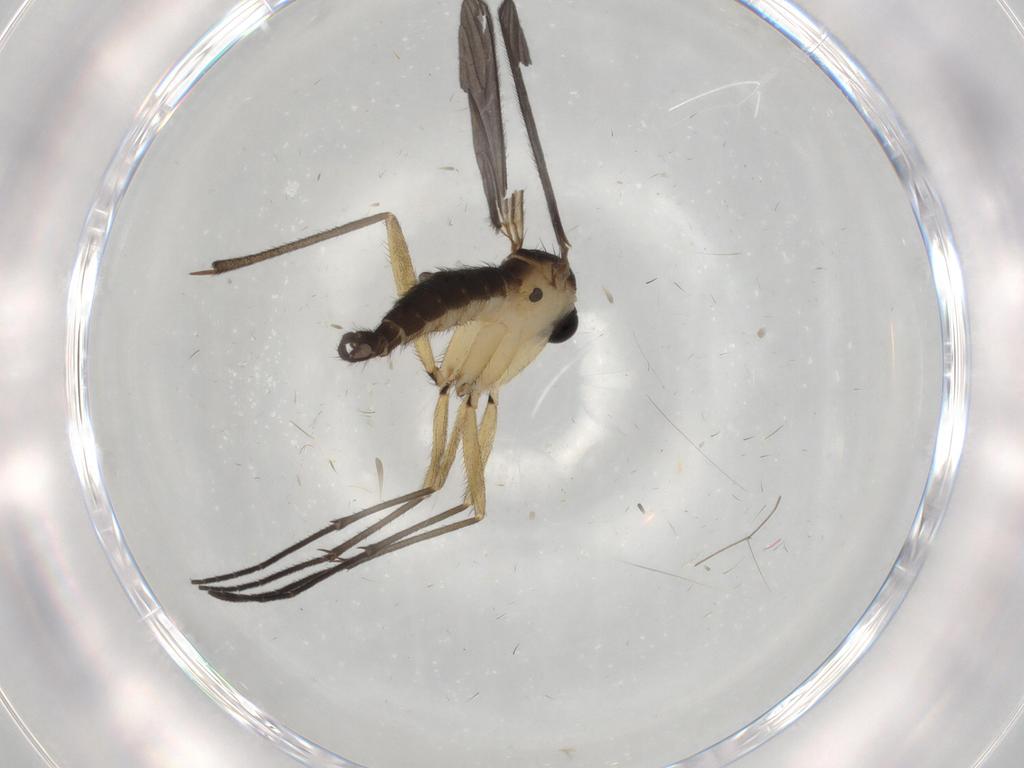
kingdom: Animalia
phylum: Arthropoda
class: Insecta
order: Diptera
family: Sciaridae
